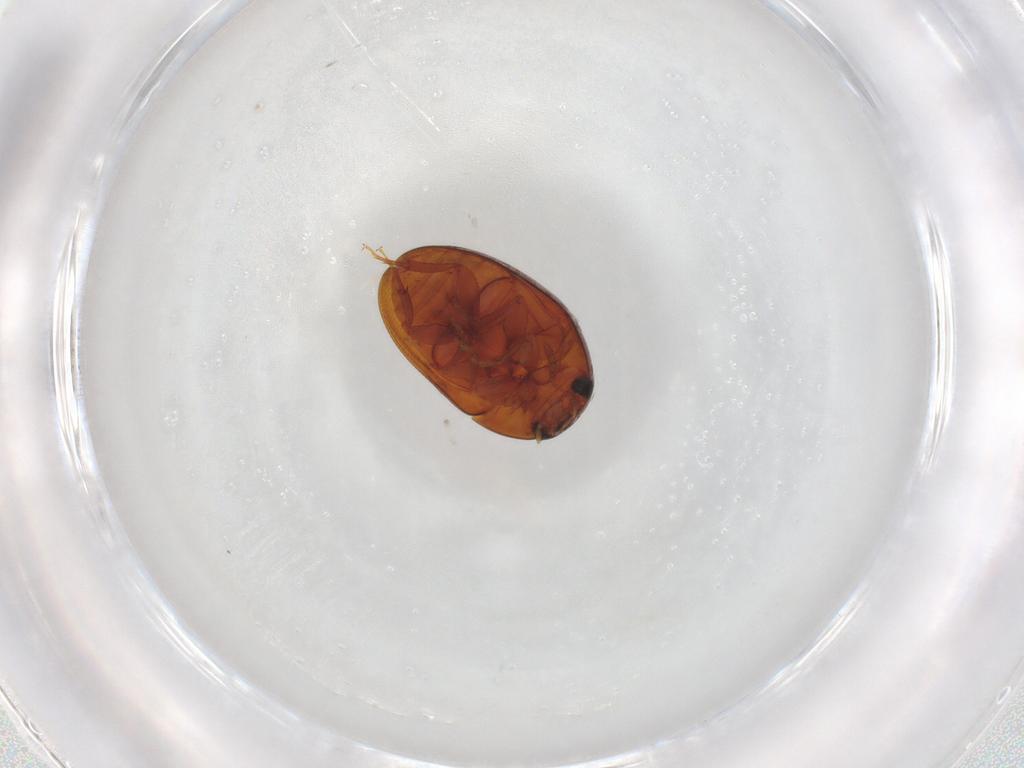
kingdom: Animalia
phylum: Arthropoda
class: Insecta
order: Coleoptera
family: Phalacridae
